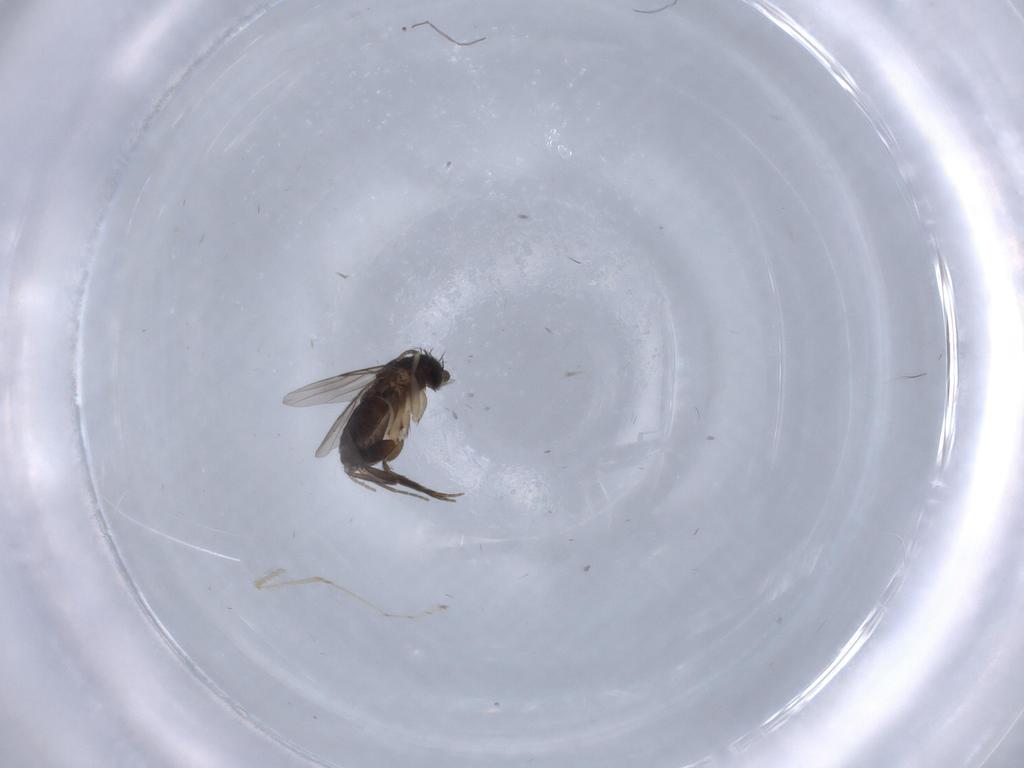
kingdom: Animalia
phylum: Arthropoda
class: Insecta
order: Diptera
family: Phoridae
